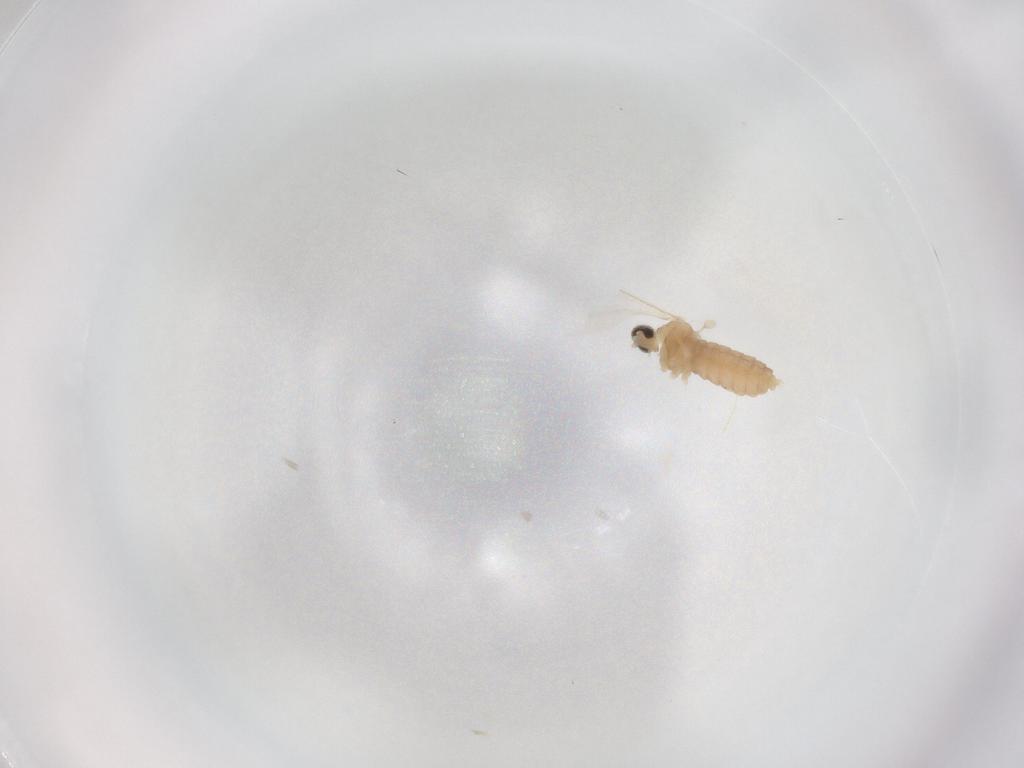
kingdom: Animalia
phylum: Arthropoda
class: Insecta
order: Diptera
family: Cecidomyiidae
